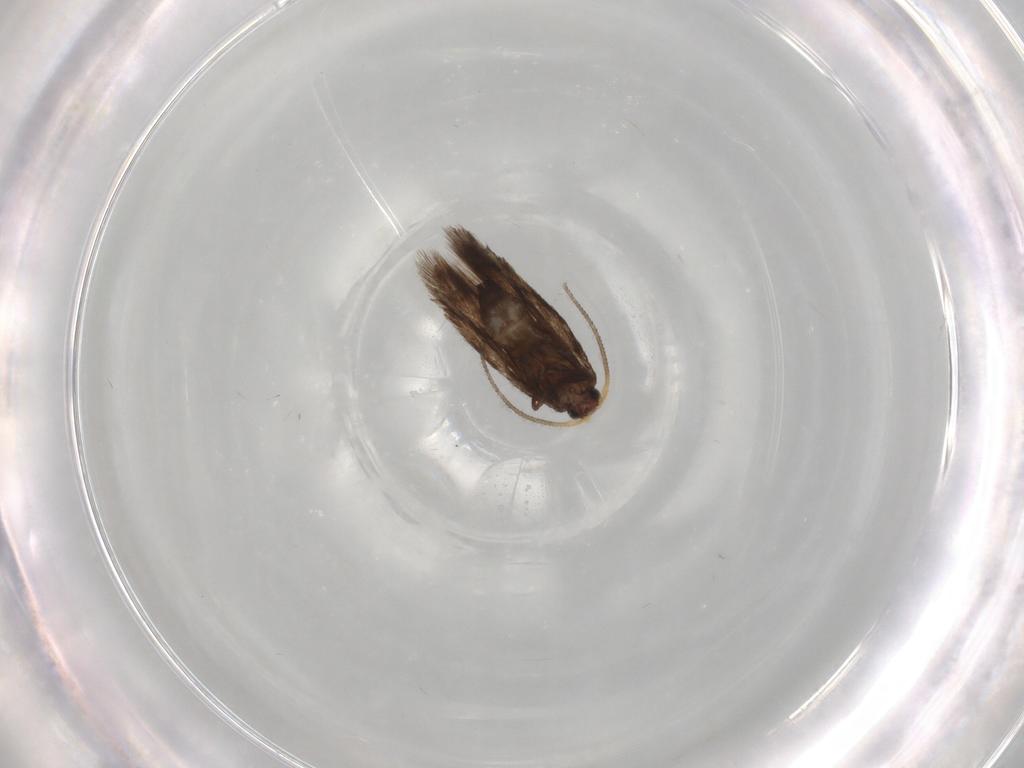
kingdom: Animalia
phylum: Arthropoda
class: Insecta
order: Lepidoptera
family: Nepticulidae
